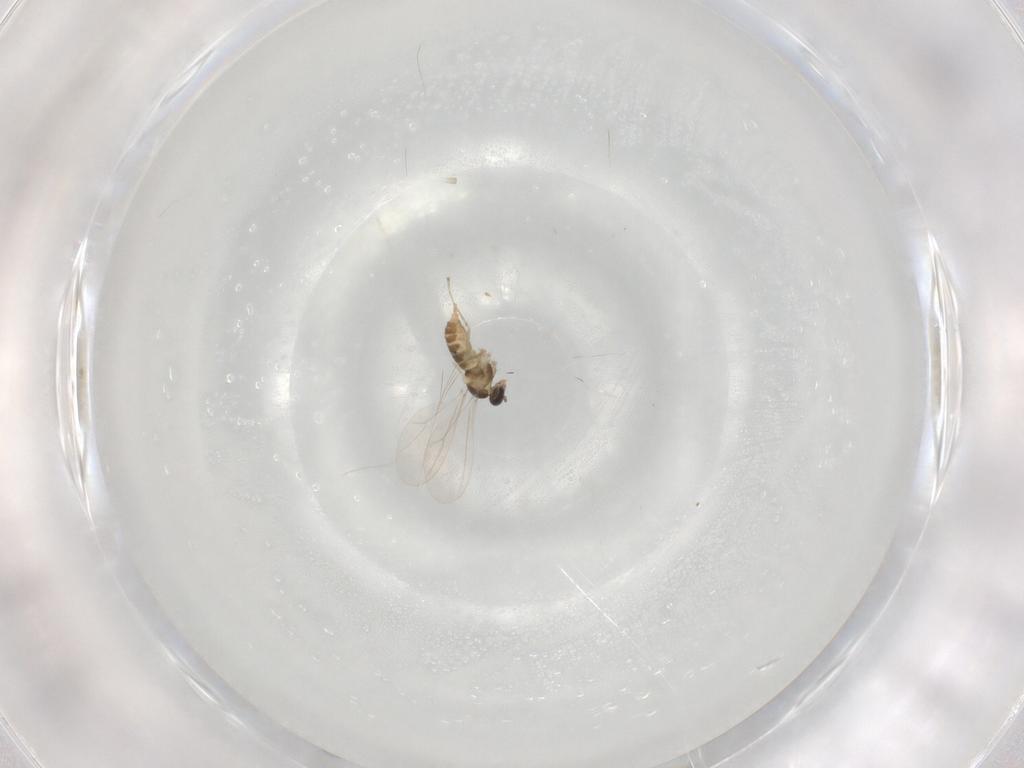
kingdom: Animalia
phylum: Arthropoda
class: Insecta
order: Diptera
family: Cecidomyiidae
